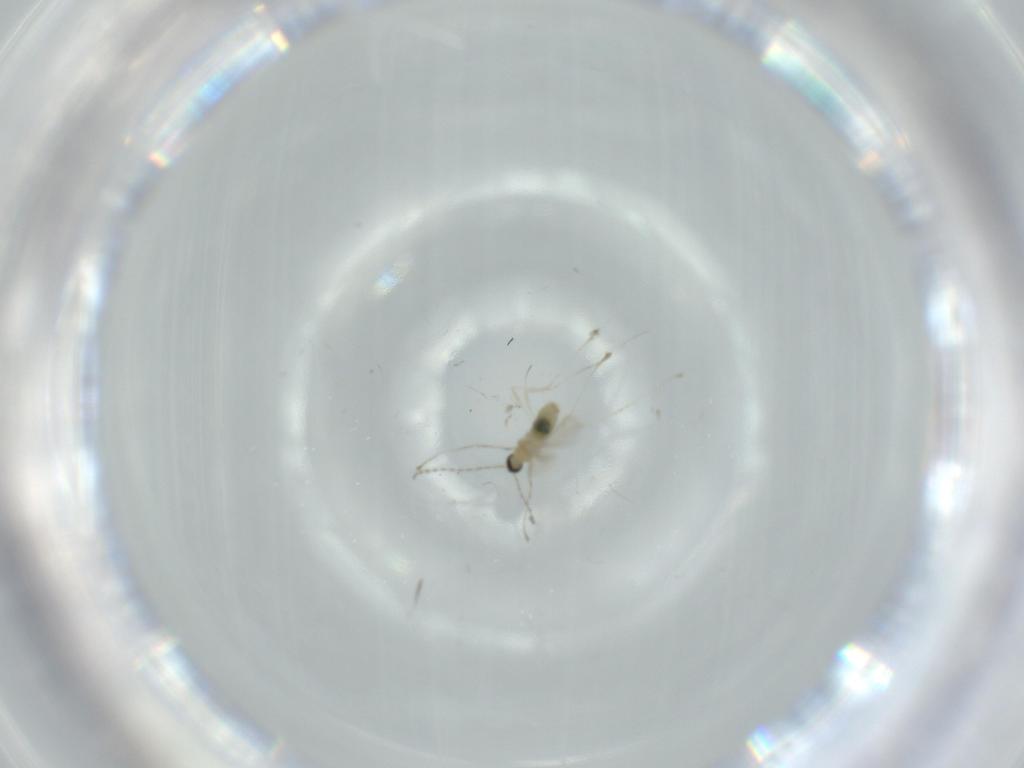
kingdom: Animalia
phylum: Arthropoda
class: Insecta
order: Diptera
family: Cecidomyiidae
